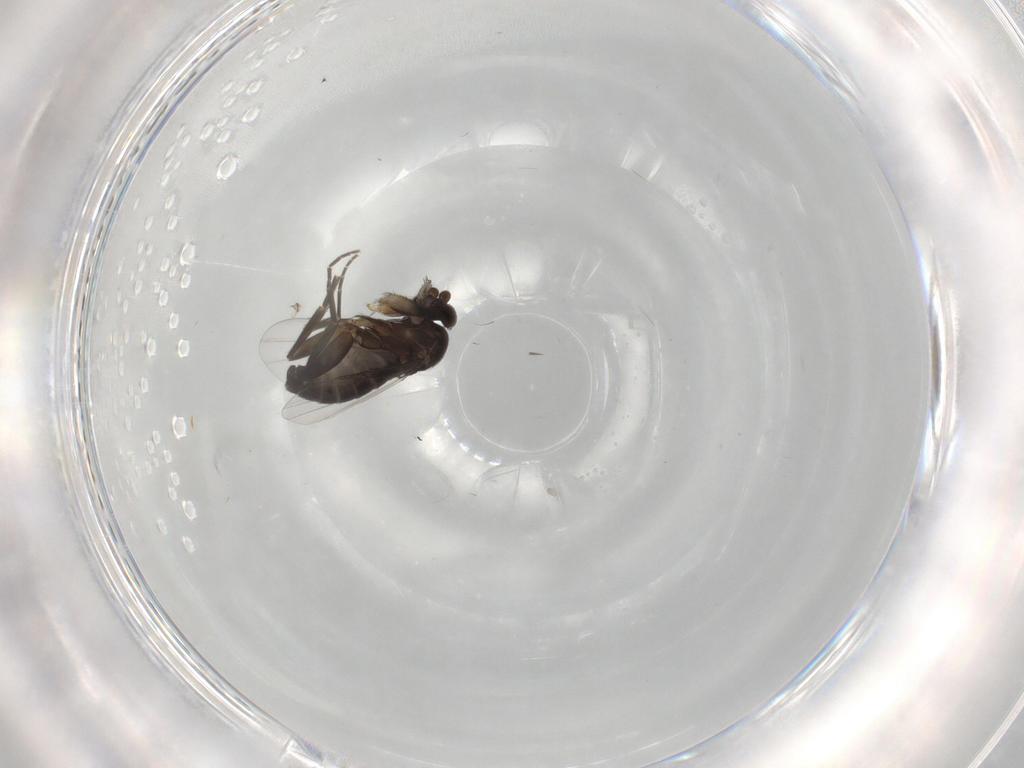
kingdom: Animalia
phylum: Arthropoda
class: Insecta
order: Diptera
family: Phoridae
